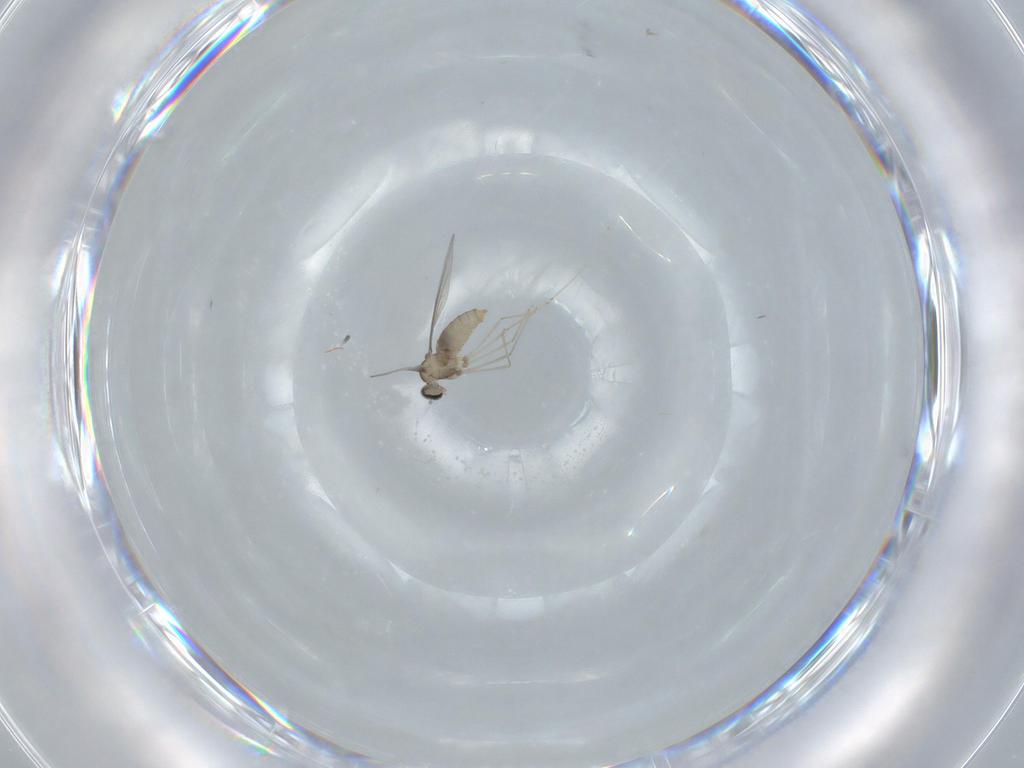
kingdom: Animalia
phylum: Arthropoda
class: Insecta
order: Diptera
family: Cecidomyiidae
